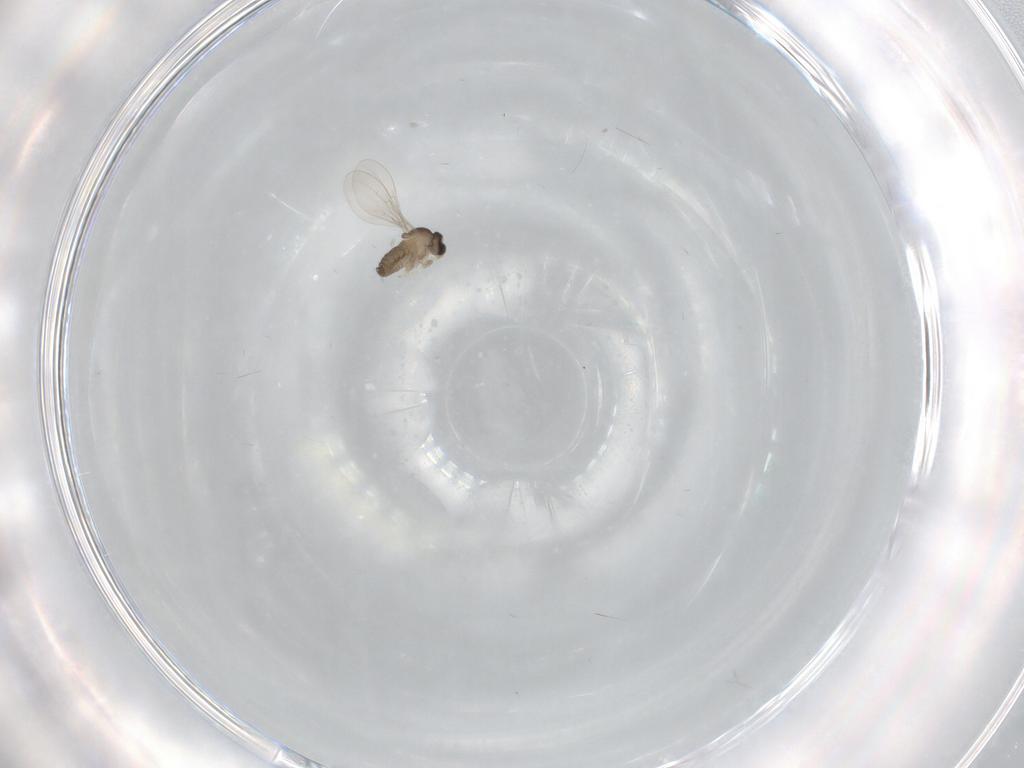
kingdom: Animalia
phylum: Arthropoda
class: Insecta
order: Diptera
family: Cecidomyiidae
